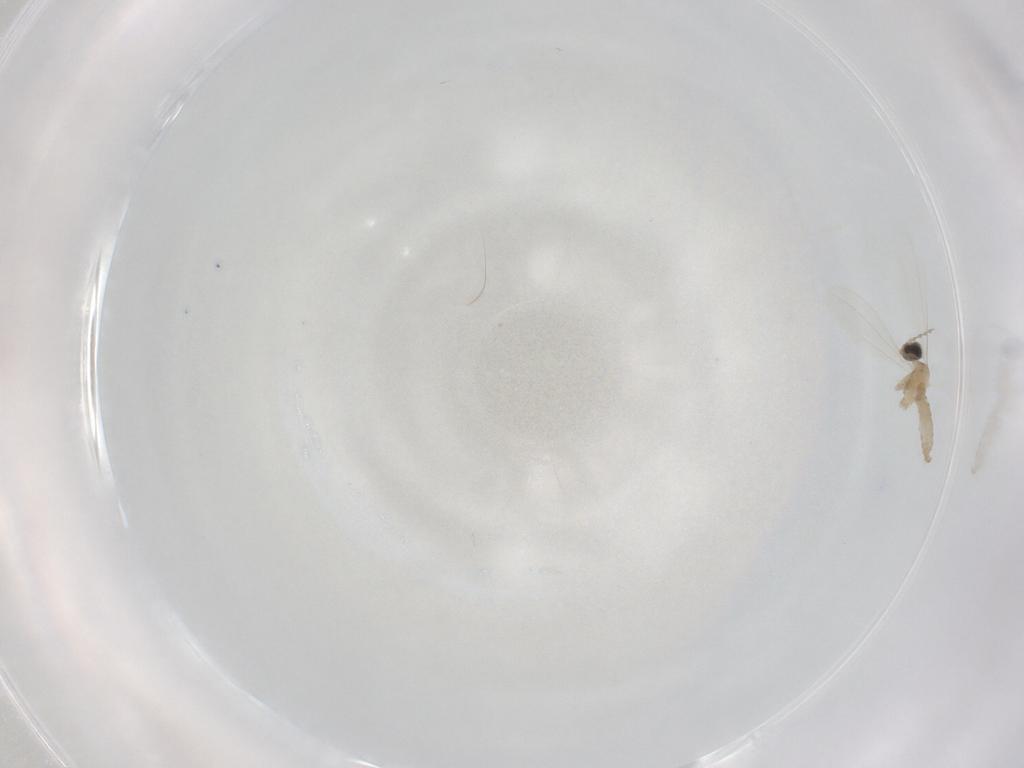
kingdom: Animalia
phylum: Arthropoda
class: Insecta
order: Diptera
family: Cecidomyiidae
